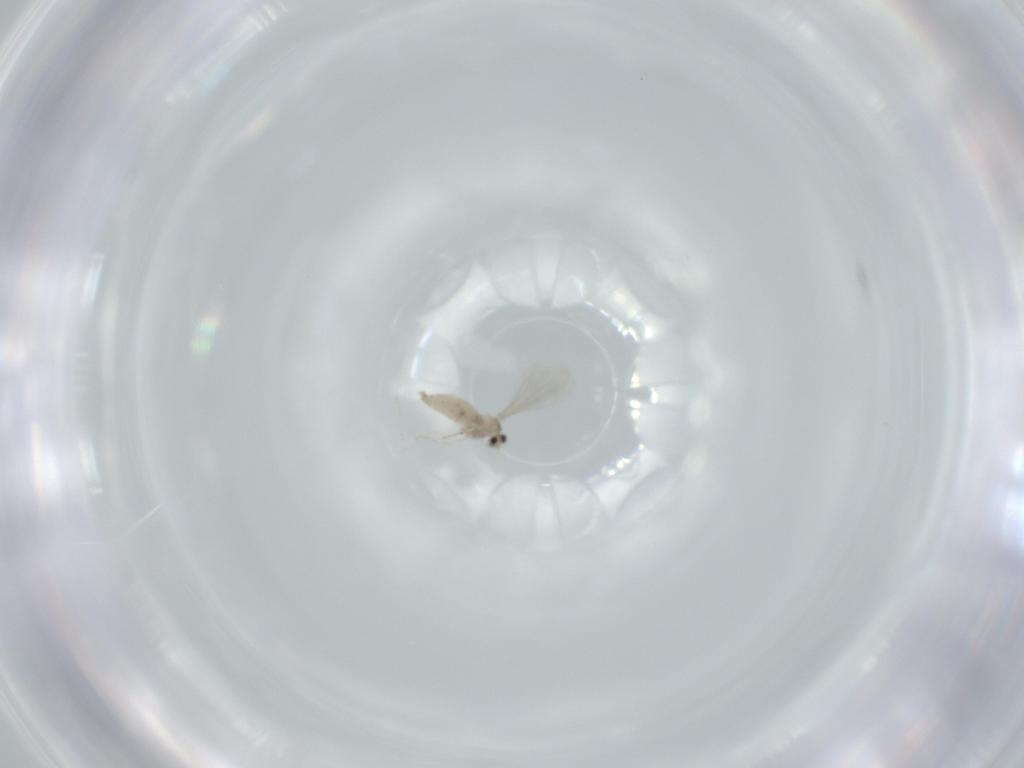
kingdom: Animalia
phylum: Arthropoda
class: Insecta
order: Diptera
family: Cecidomyiidae
